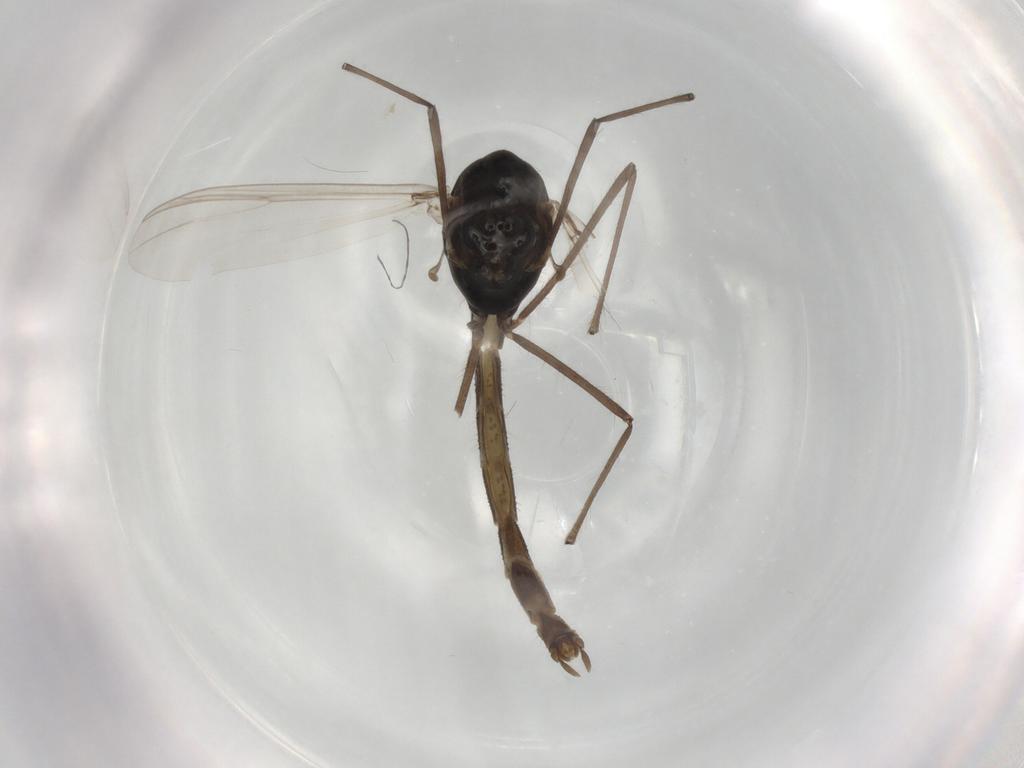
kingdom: Animalia
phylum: Arthropoda
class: Insecta
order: Diptera
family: Chironomidae
